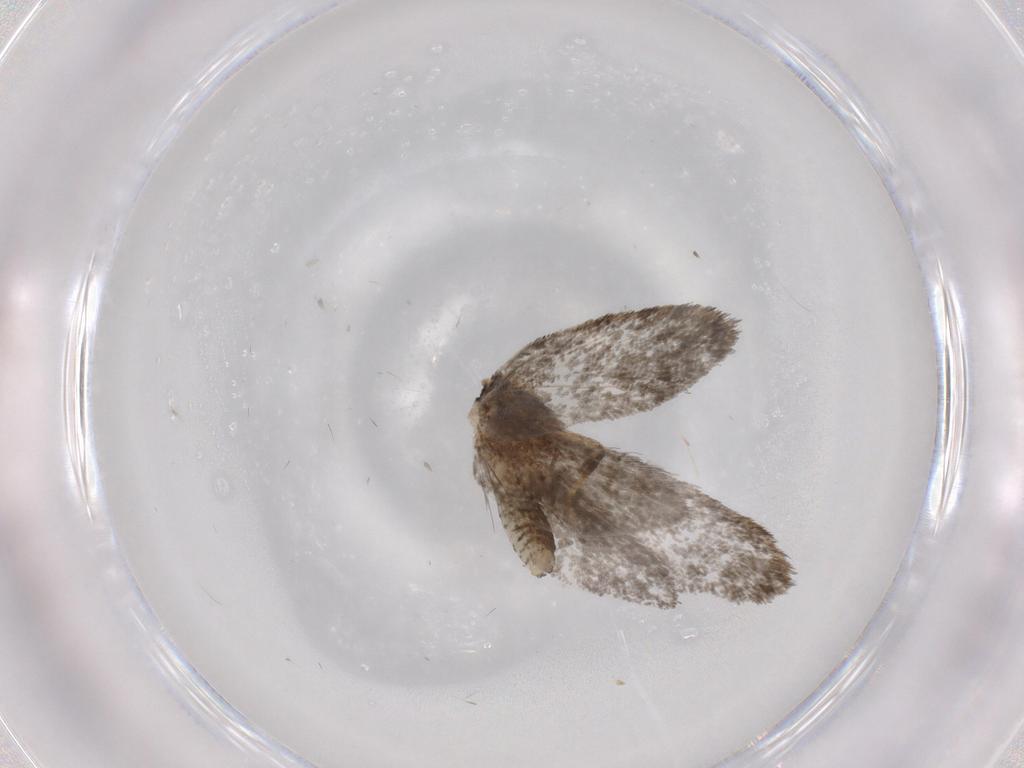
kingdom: Animalia
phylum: Arthropoda
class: Insecta
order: Lepidoptera
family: Psychidae
